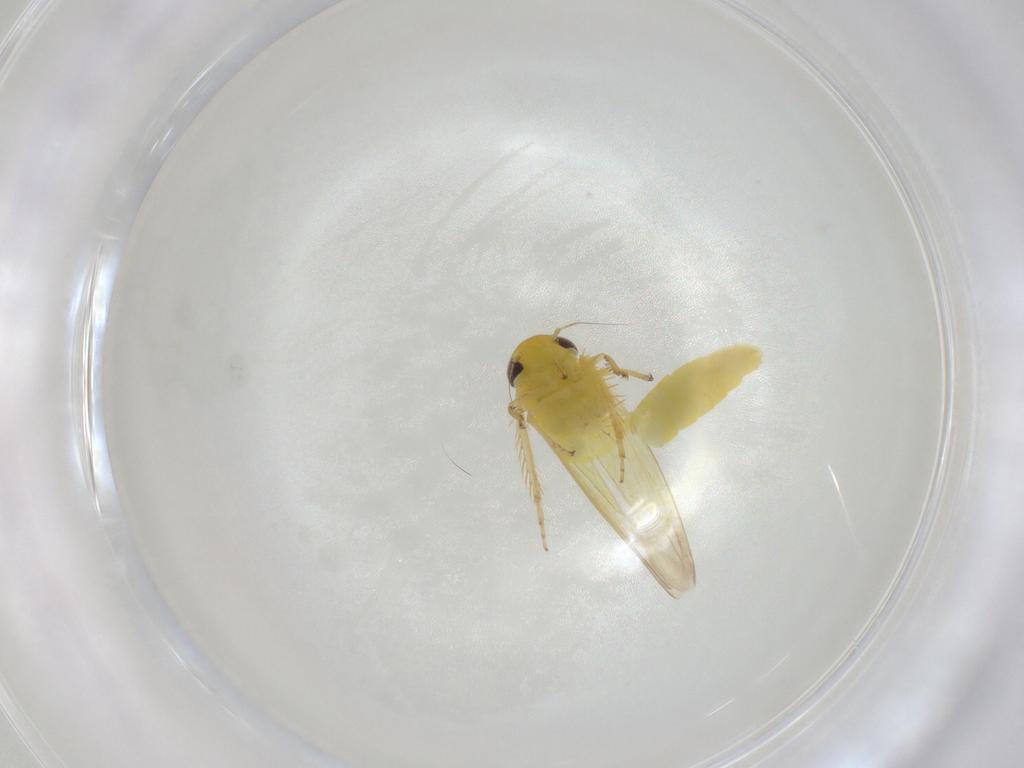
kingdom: Animalia
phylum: Arthropoda
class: Insecta
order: Hemiptera
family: Cicadellidae
